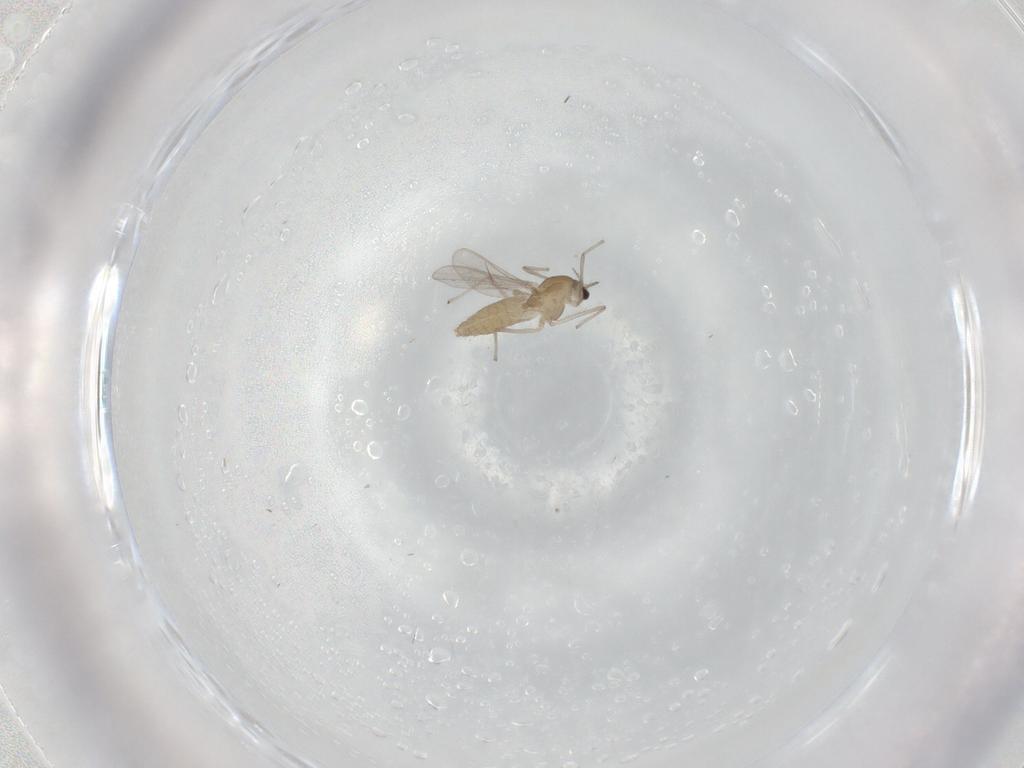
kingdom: Animalia
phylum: Arthropoda
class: Insecta
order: Diptera
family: Chironomidae
